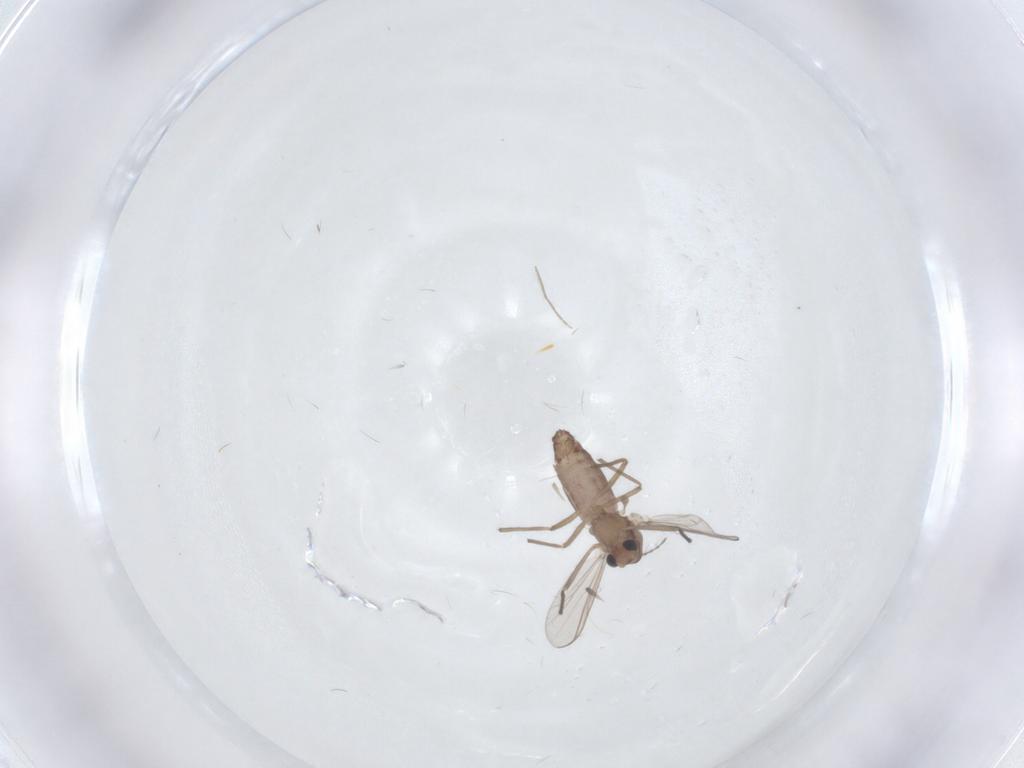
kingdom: Animalia
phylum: Arthropoda
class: Insecta
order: Diptera
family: Chironomidae
